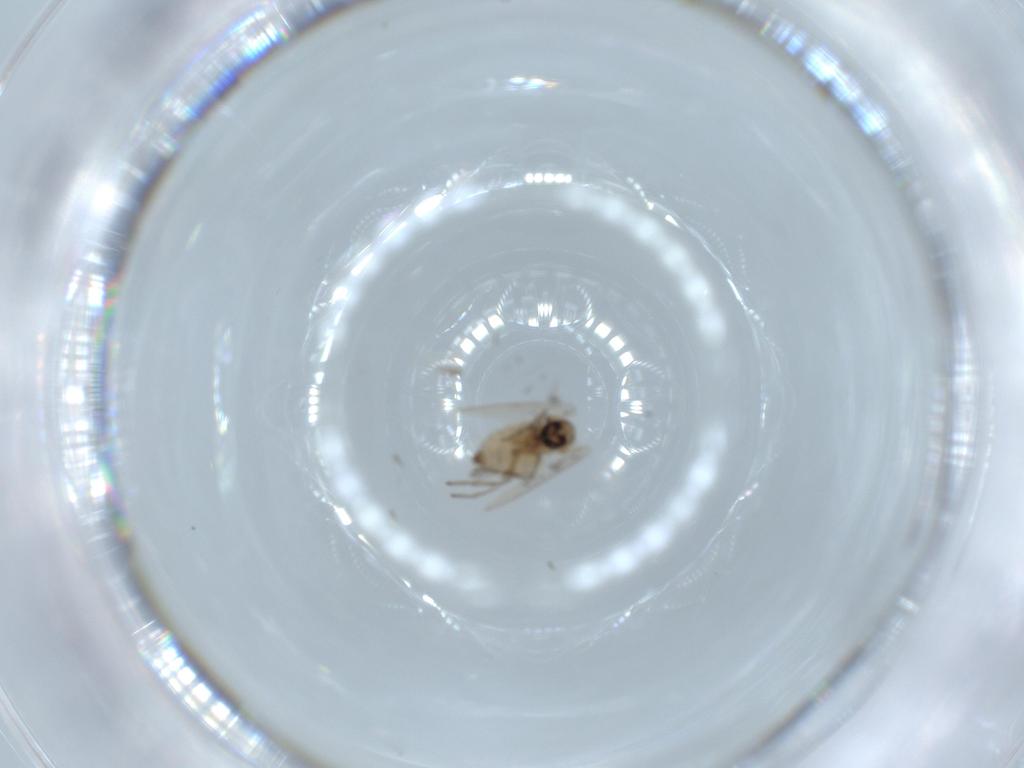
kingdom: Animalia
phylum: Arthropoda
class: Insecta
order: Diptera
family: Psychodidae
